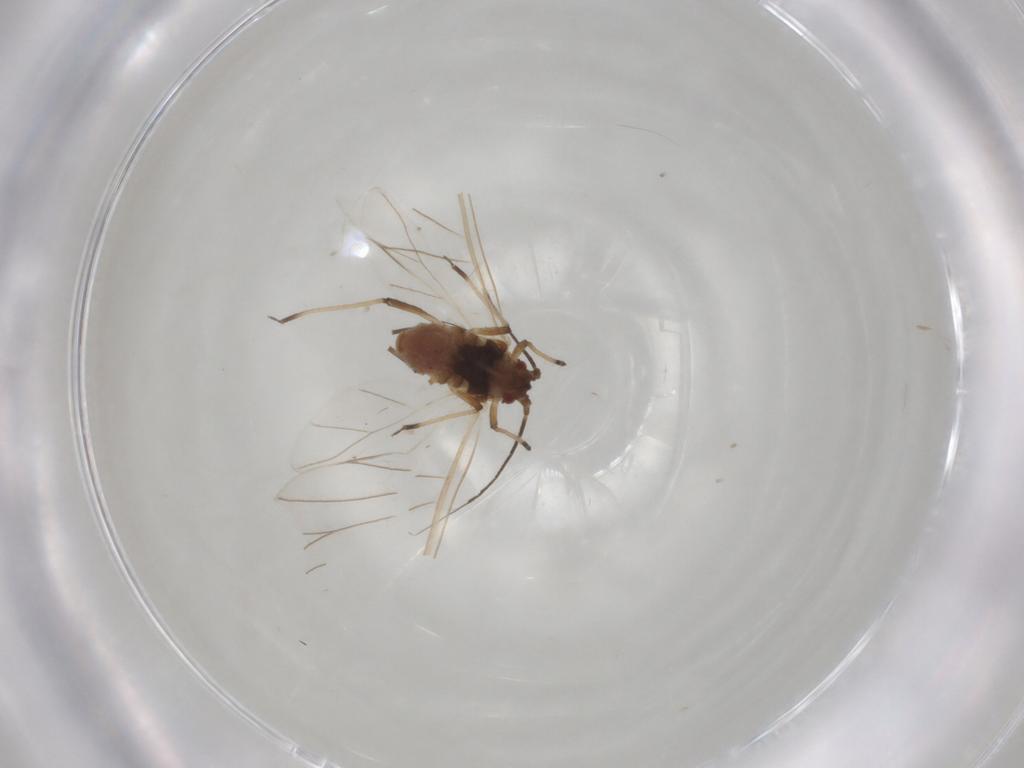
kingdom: Animalia
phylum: Arthropoda
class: Insecta
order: Hemiptera
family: Aphididae
